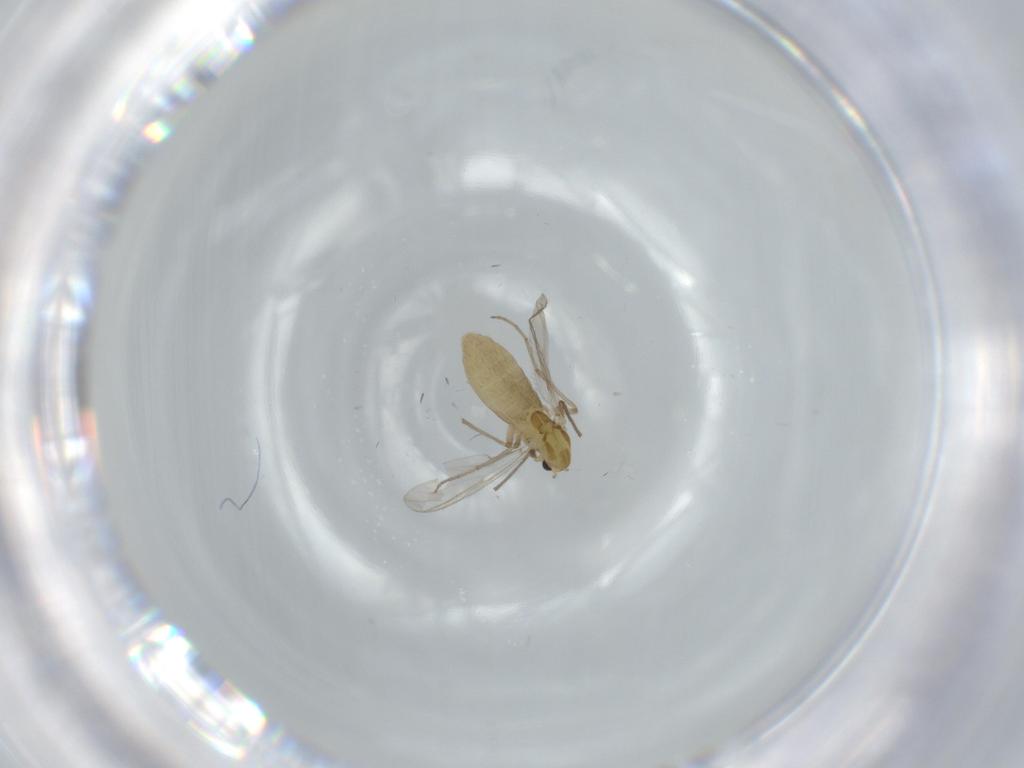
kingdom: Animalia
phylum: Arthropoda
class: Insecta
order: Diptera
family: Chironomidae
